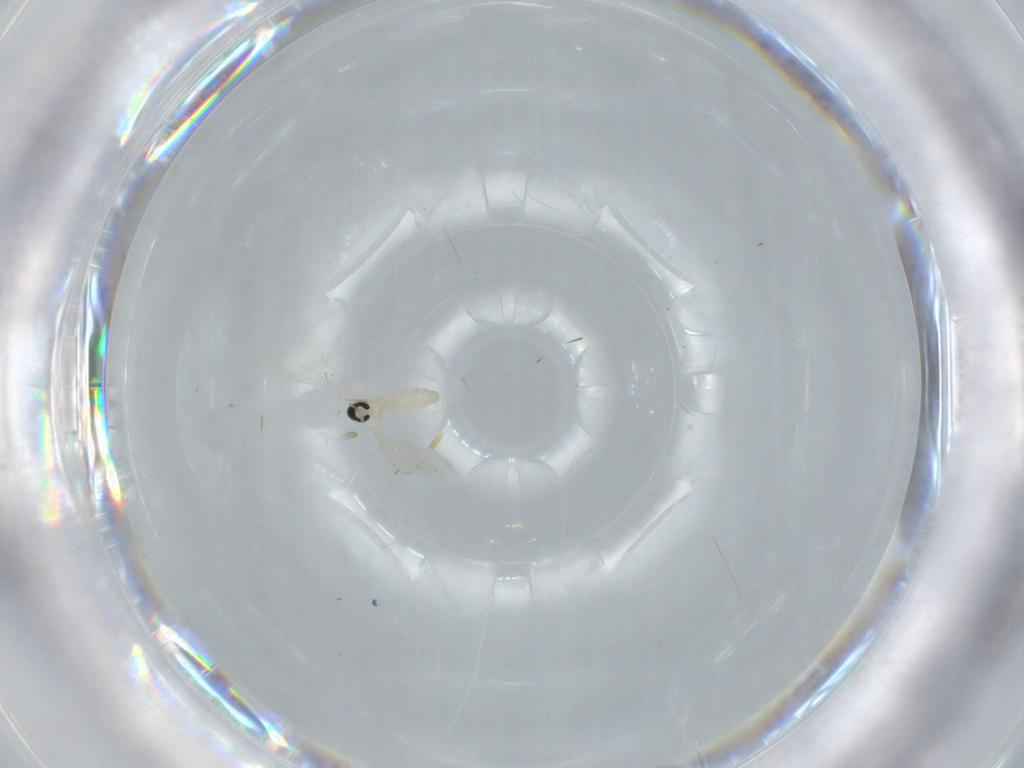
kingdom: Animalia
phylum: Arthropoda
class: Insecta
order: Diptera
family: Cecidomyiidae
